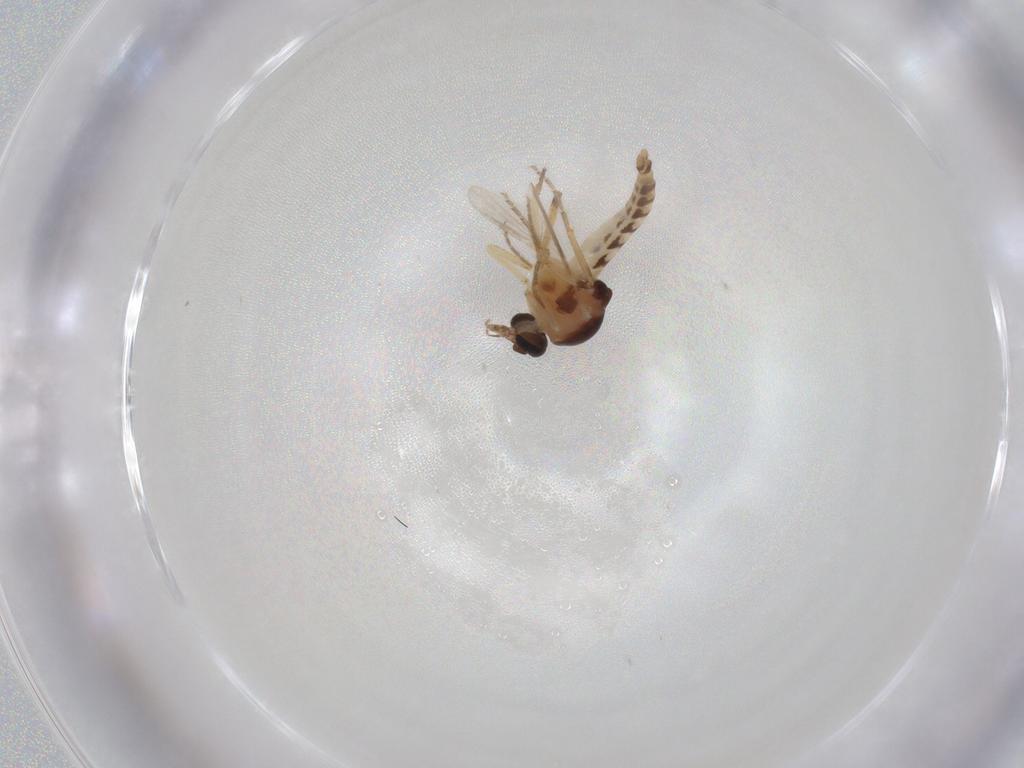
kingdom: Animalia
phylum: Arthropoda
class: Insecta
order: Diptera
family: Ceratopogonidae
